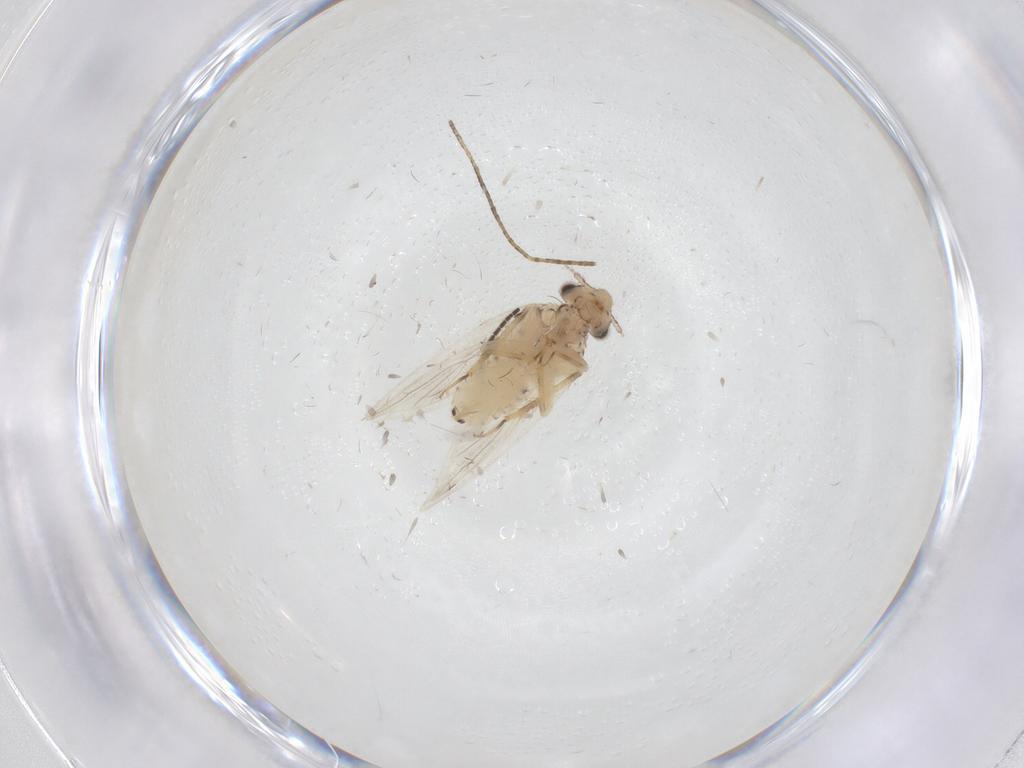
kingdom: Animalia
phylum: Arthropoda
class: Insecta
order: Psocodea
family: Lepidopsocidae
